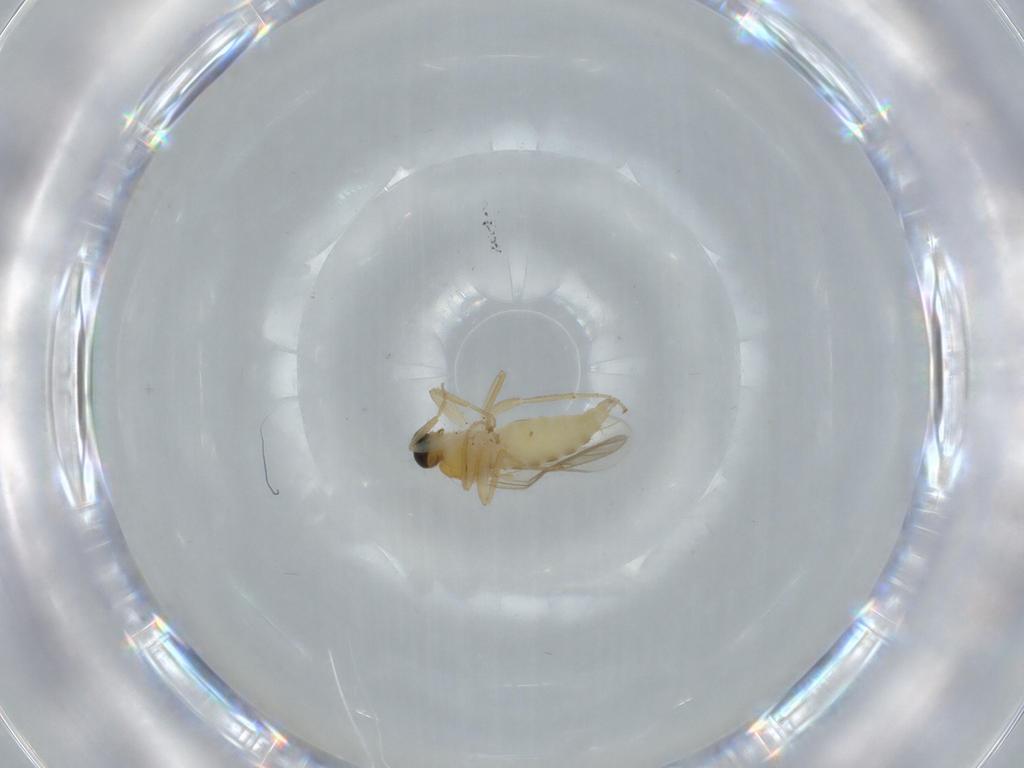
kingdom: Animalia
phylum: Arthropoda
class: Insecta
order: Diptera
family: Hybotidae
